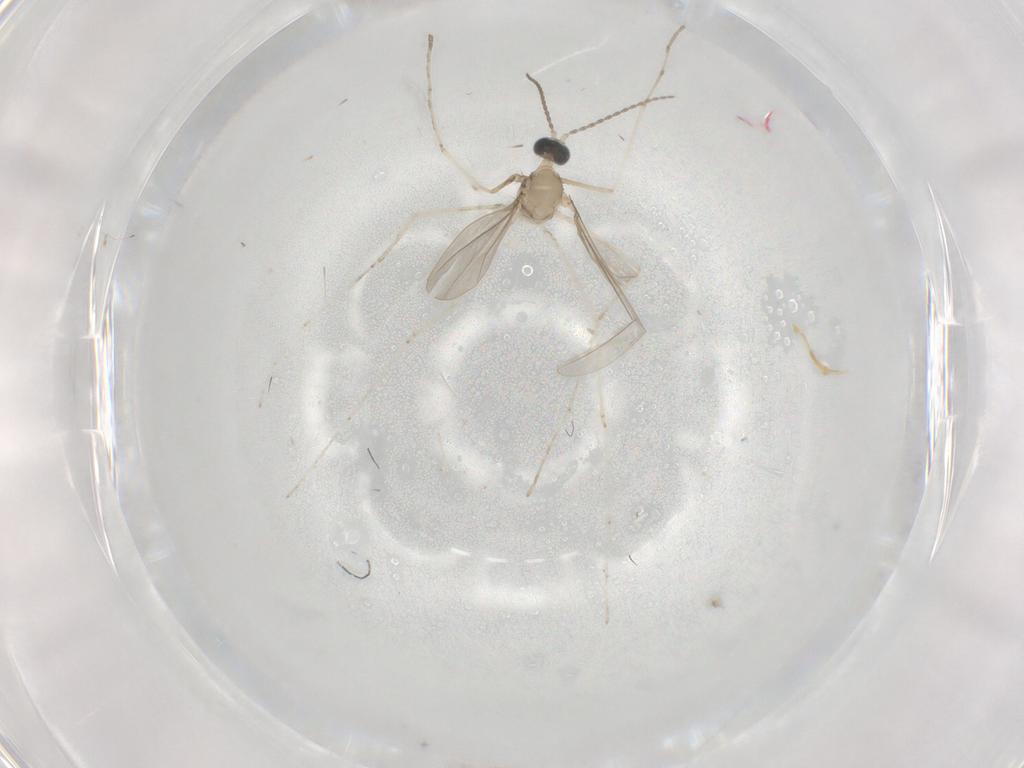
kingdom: Animalia
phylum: Arthropoda
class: Insecta
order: Diptera
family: Cecidomyiidae
